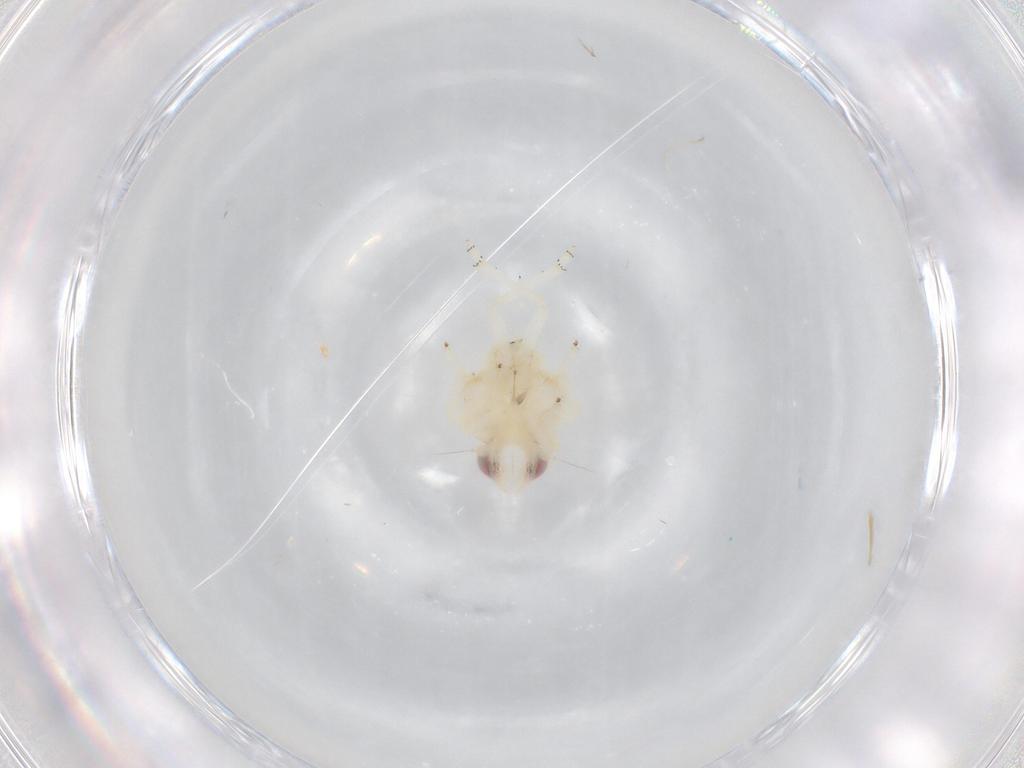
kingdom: Animalia
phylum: Arthropoda
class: Insecta
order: Hemiptera
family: Nogodinidae
